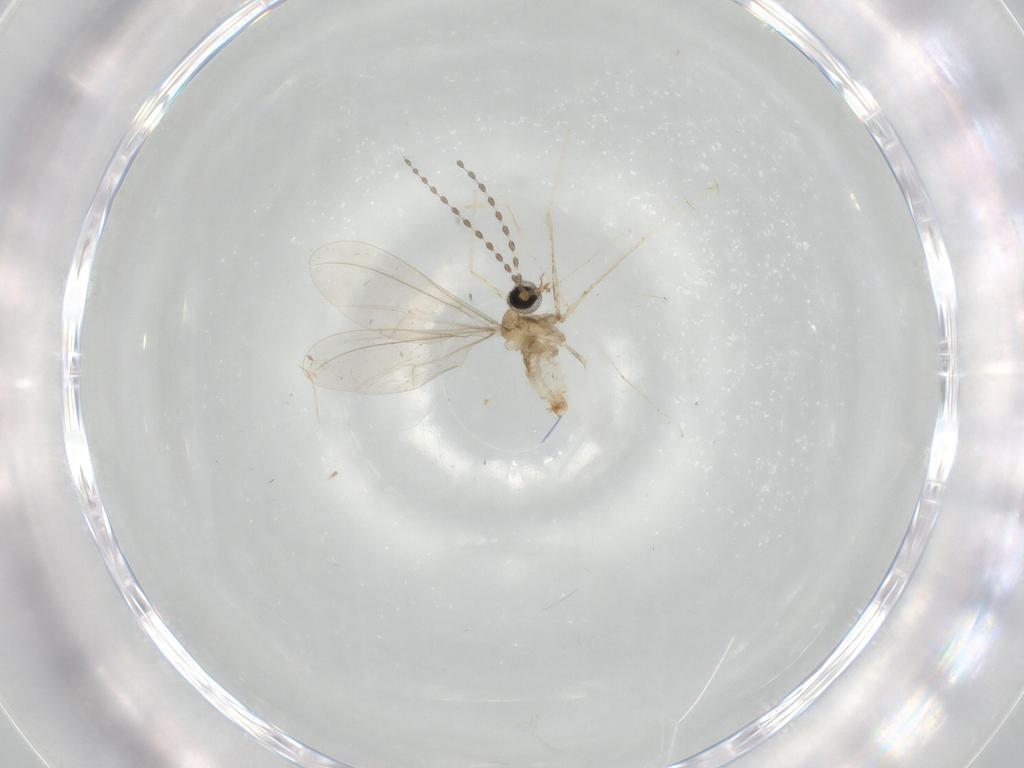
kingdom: Animalia
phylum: Arthropoda
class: Insecta
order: Diptera
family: Cecidomyiidae
